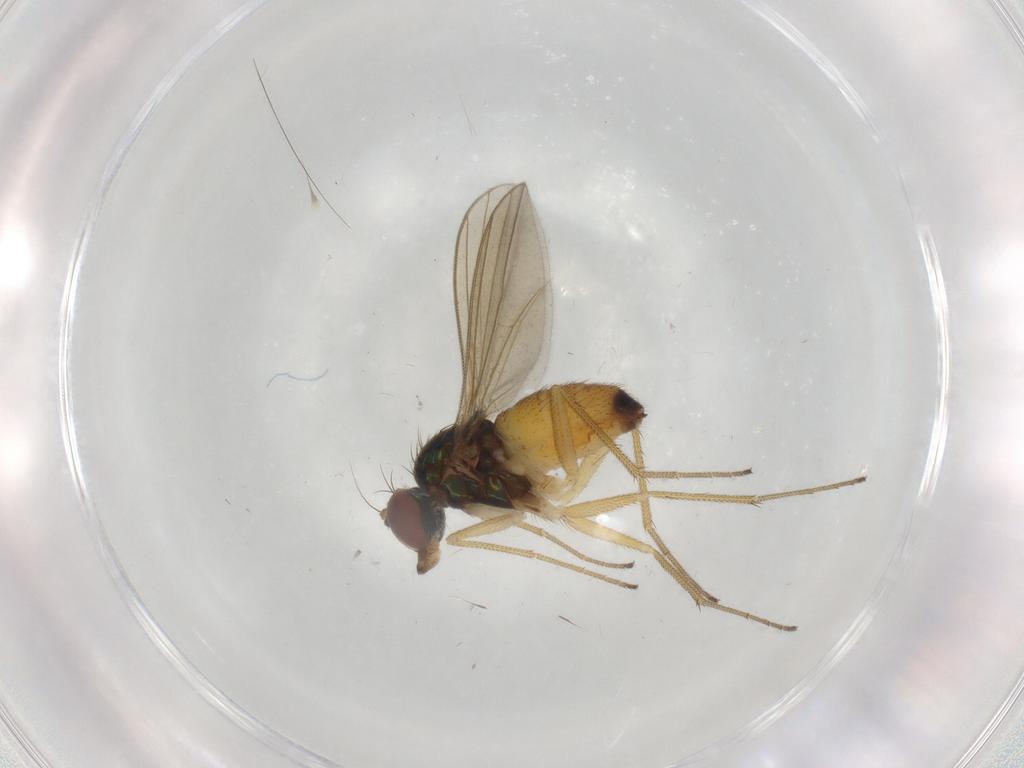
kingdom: Animalia
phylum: Arthropoda
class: Insecta
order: Diptera
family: Dolichopodidae
